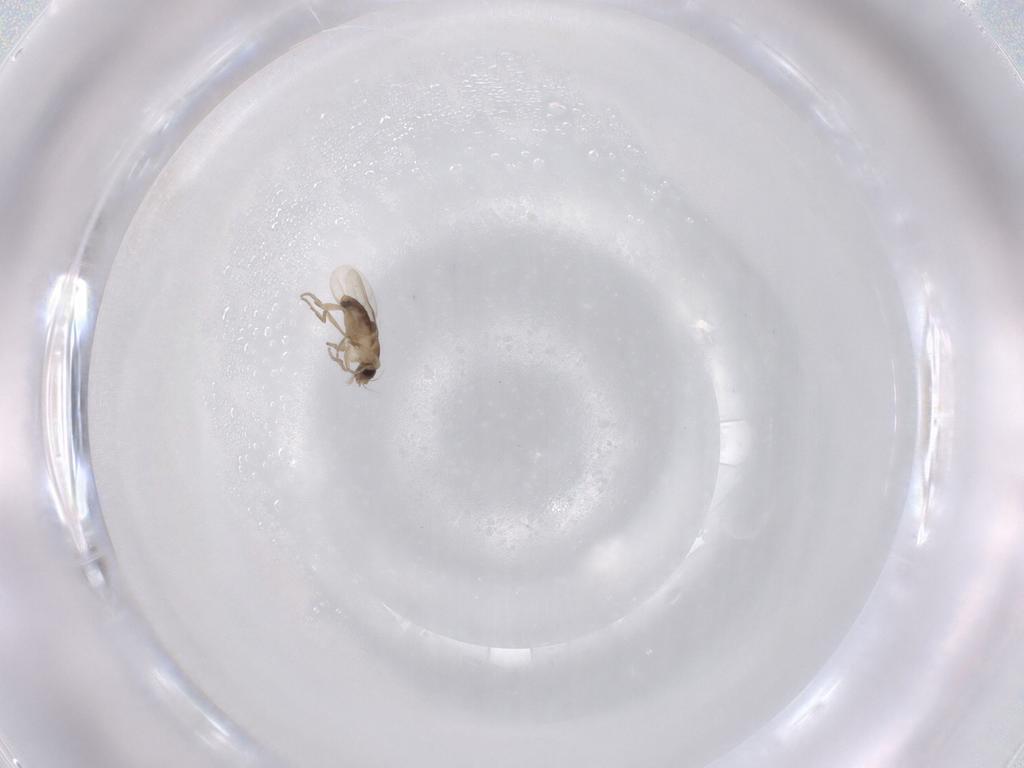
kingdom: Animalia
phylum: Arthropoda
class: Insecta
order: Diptera
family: Phoridae
